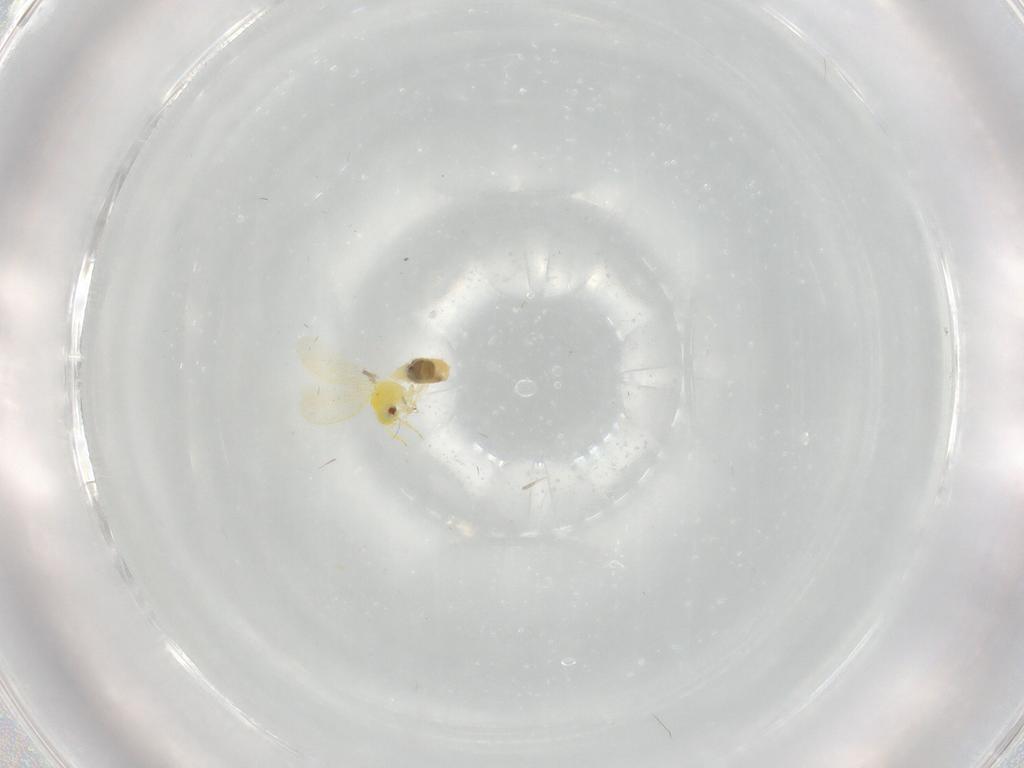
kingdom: Animalia
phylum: Arthropoda
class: Insecta
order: Hemiptera
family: Aleyrodidae
